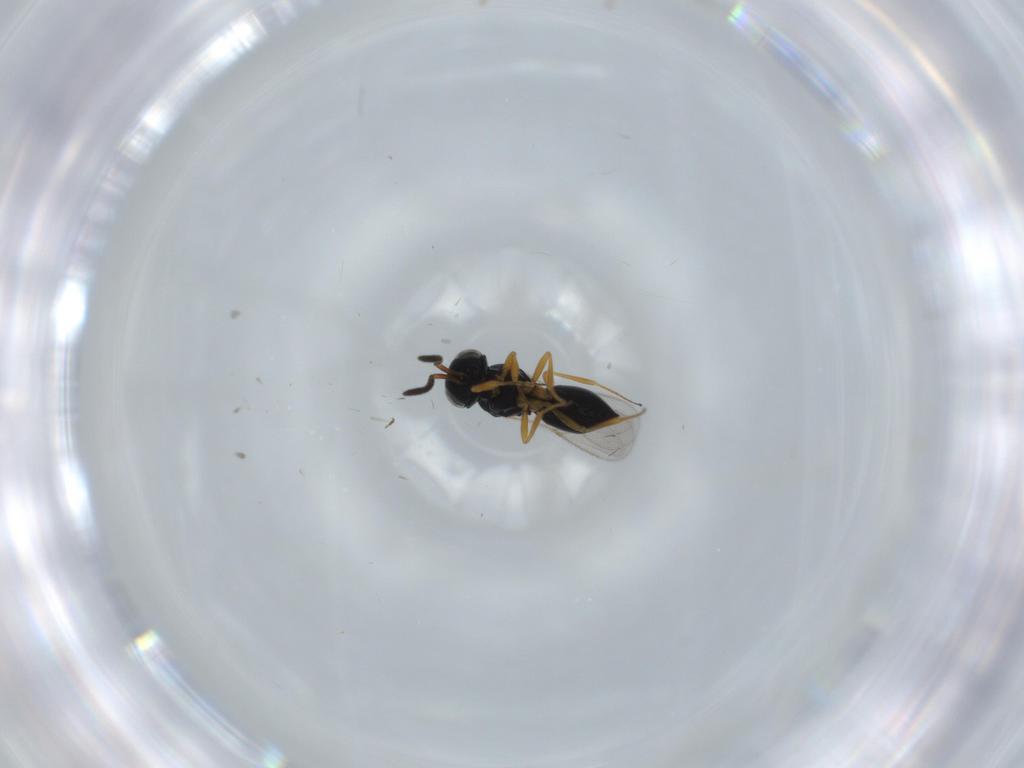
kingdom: Animalia
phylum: Arthropoda
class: Insecta
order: Hymenoptera
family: Scelionidae
